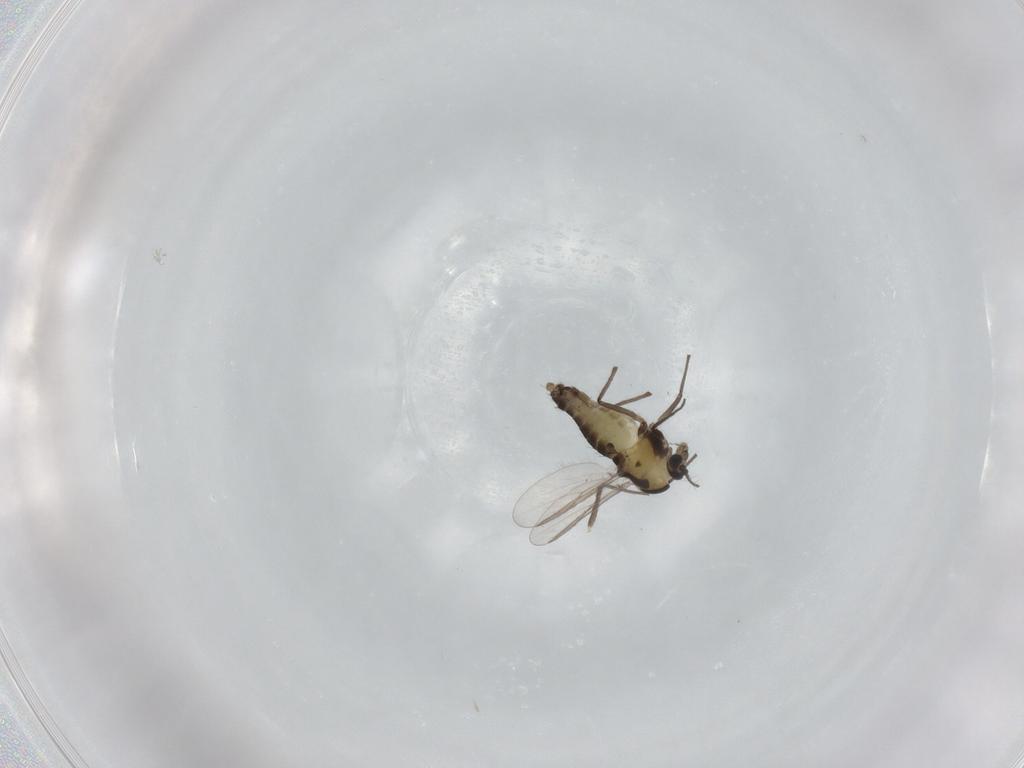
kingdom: Animalia
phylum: Arthropoda
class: Insecta
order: Diptera
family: Chironomidae
